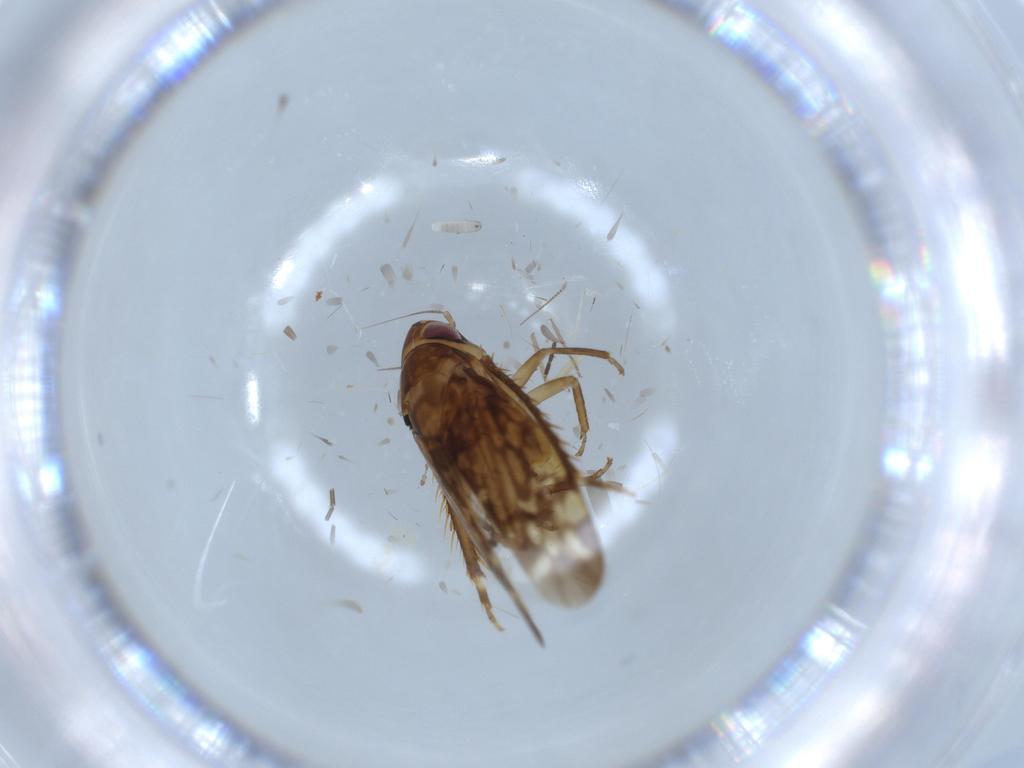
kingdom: Animalia
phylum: Arthropoda
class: Insecta
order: Hemiptera
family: Cicadellidae
